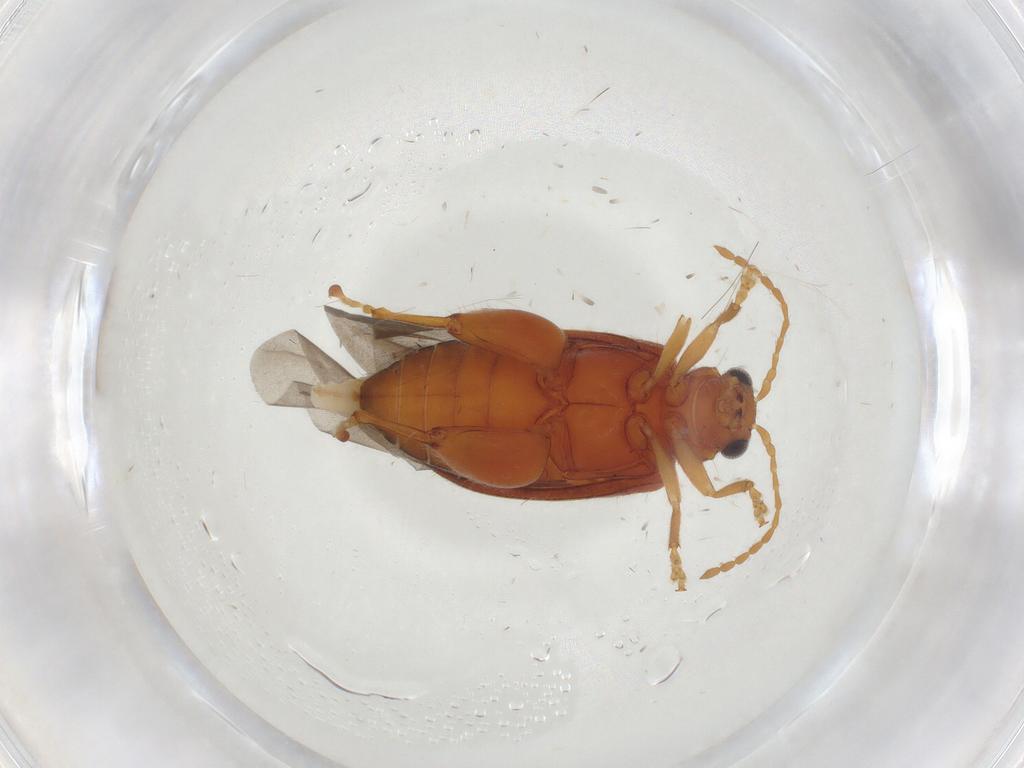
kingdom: Animalia
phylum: Arthropoda
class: Insecta
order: Coleoptera
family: Chrysomelidae
